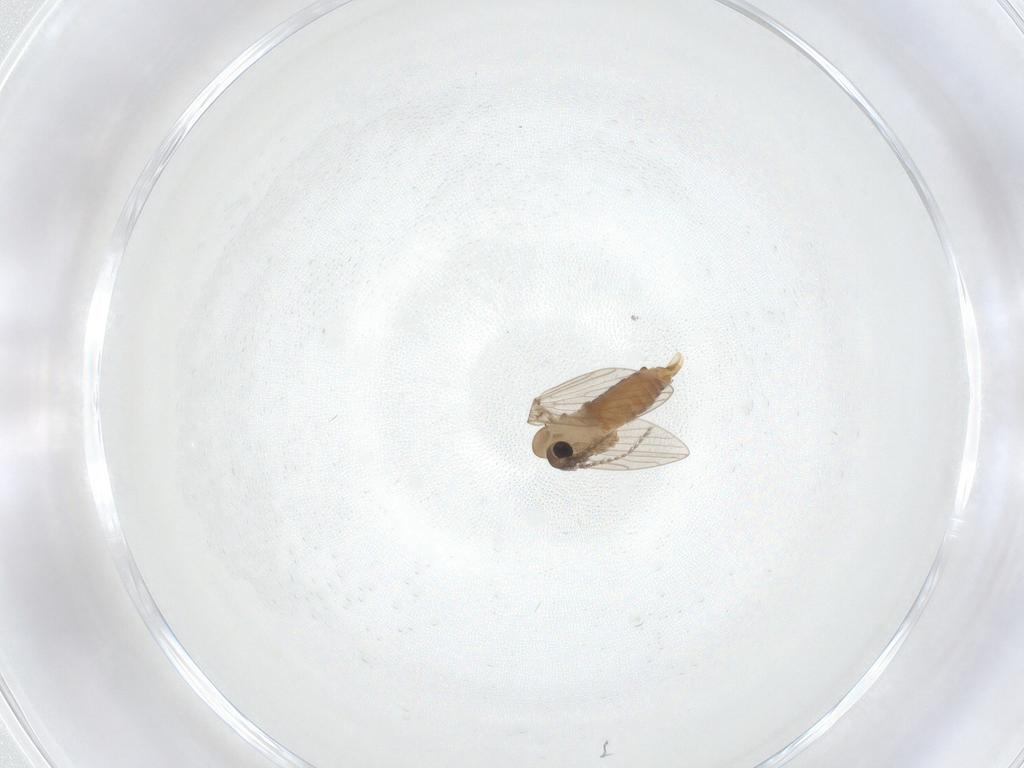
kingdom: Animalia
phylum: Arthropoda
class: Insecta
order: Diptera
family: Psychodidae
